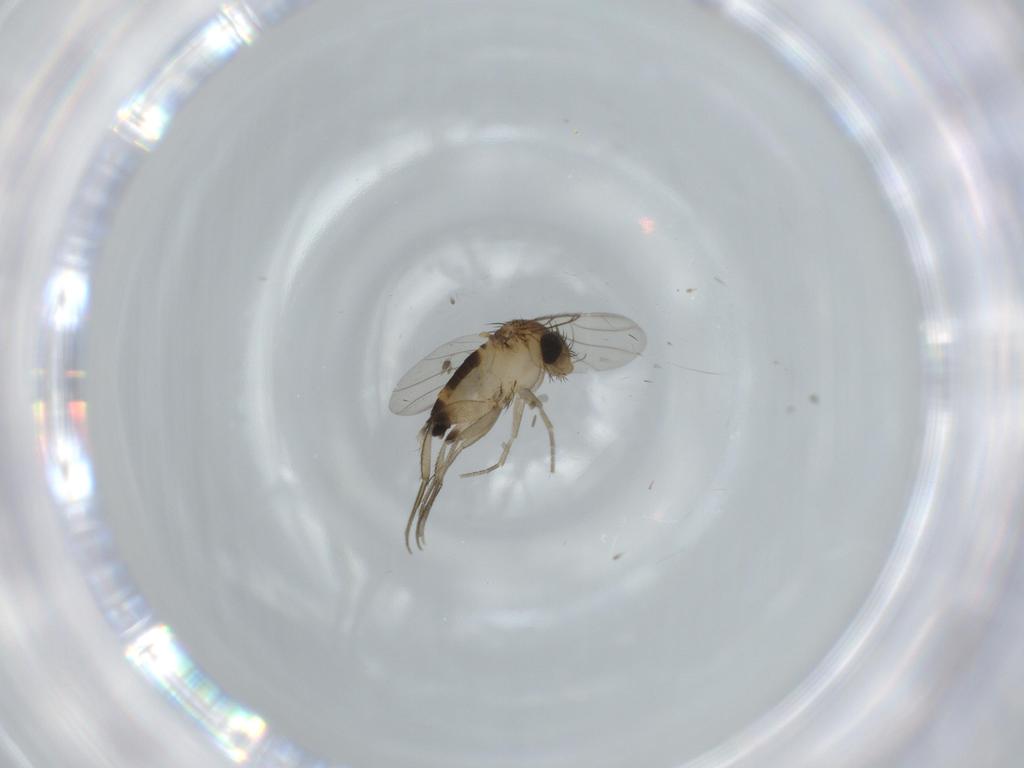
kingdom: Animalia
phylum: Arthropoda
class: Insecta
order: Diptera
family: Phoridae
